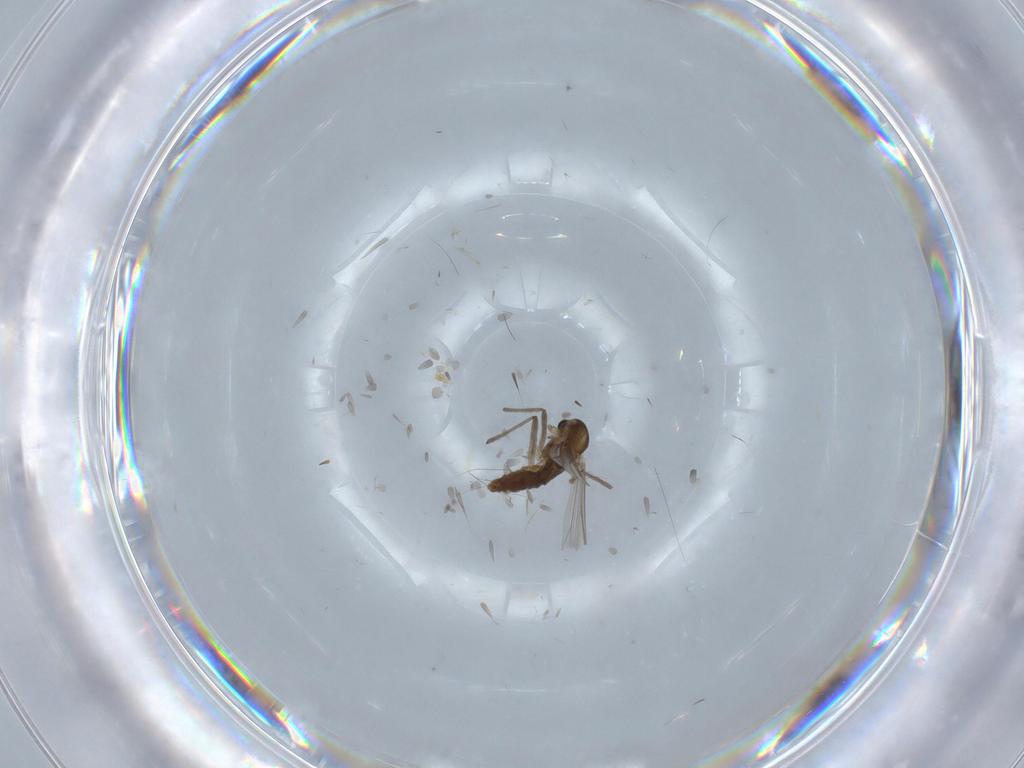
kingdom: Animalia
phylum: Arthropoda
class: Insecta
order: Diptera
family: Chironomidae
